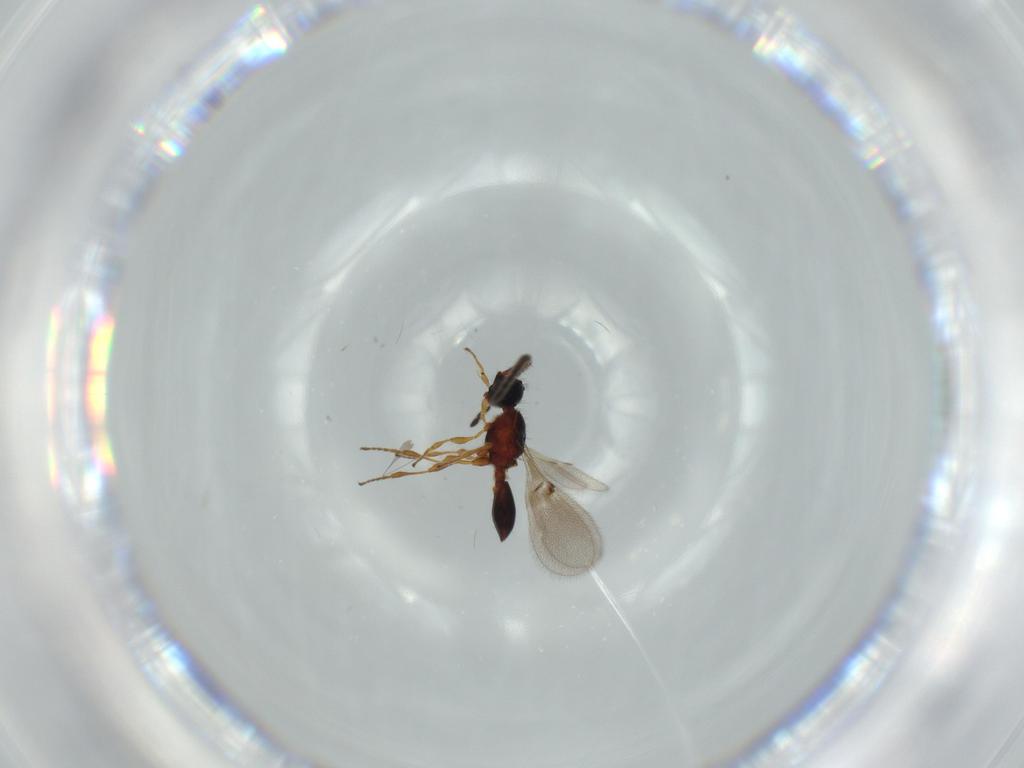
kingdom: Animalia
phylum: Arthropoda
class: Insecta
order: Hymenoptera
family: Diapriidae
